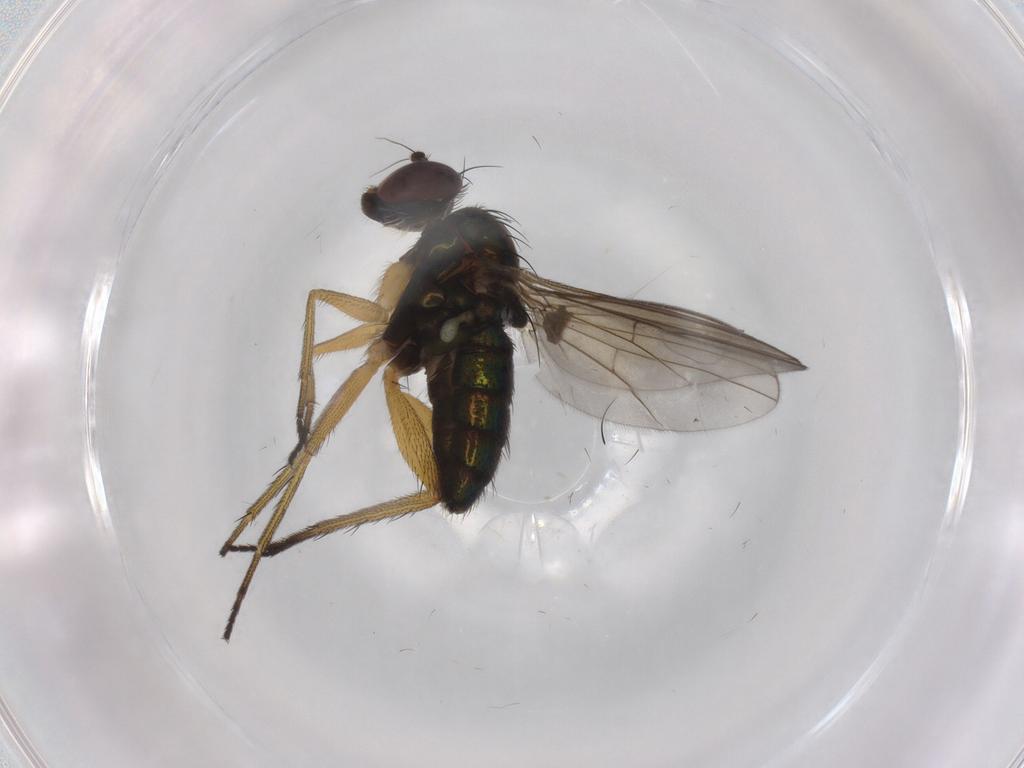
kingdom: Animalia
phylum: Arthropoda
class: Insecta
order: Diptera
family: Dolichopodidae
